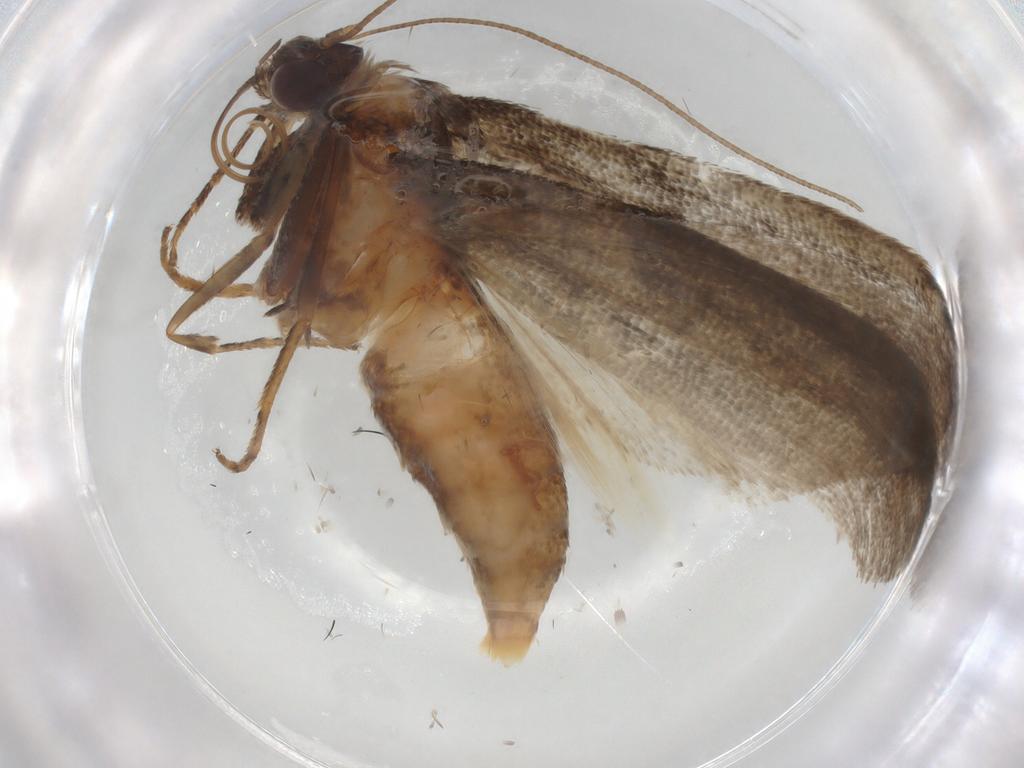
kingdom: Animalia
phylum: Arthropoda
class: Insecta
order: Lepidoptera
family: Pyralidae
